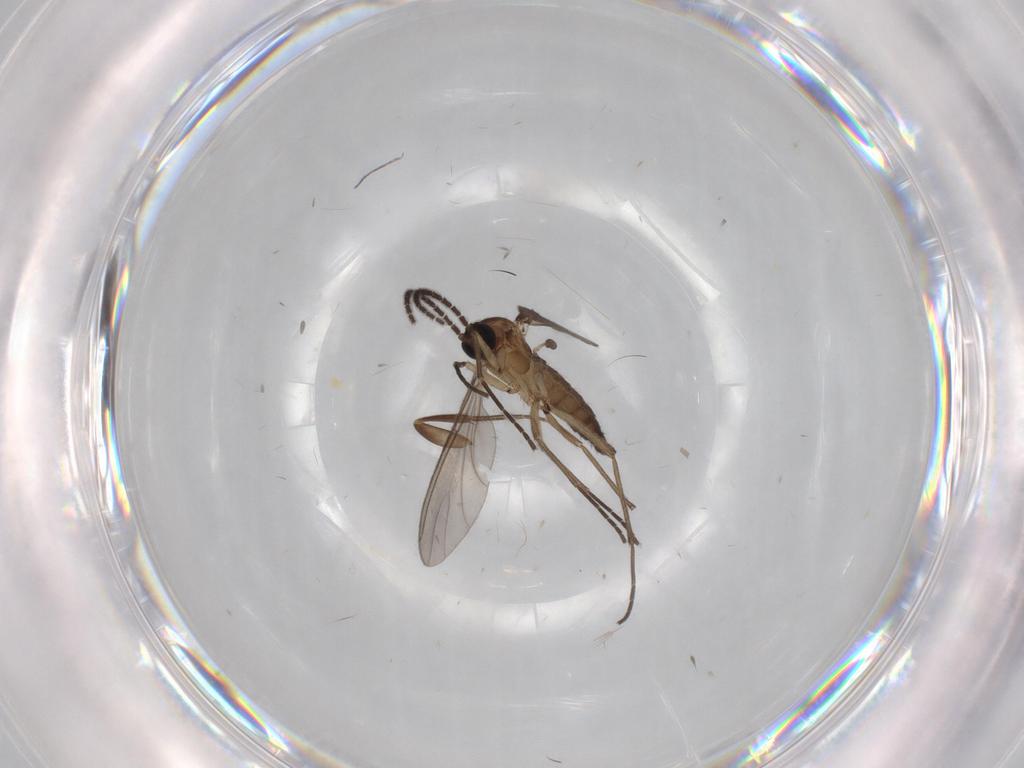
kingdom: Animalia
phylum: Arthropoda
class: Insecta
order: Diptera
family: Sciaridae
